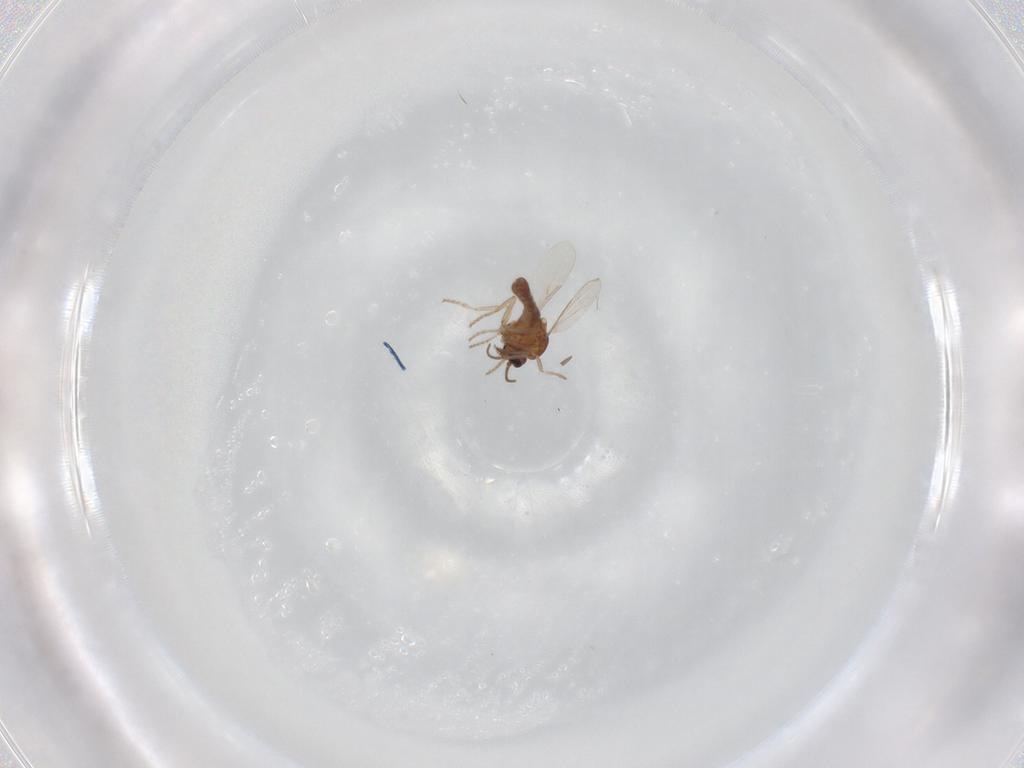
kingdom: Animalia
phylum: Arthropoda
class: Insecta
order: Diptera
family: Ceratopogonidae
